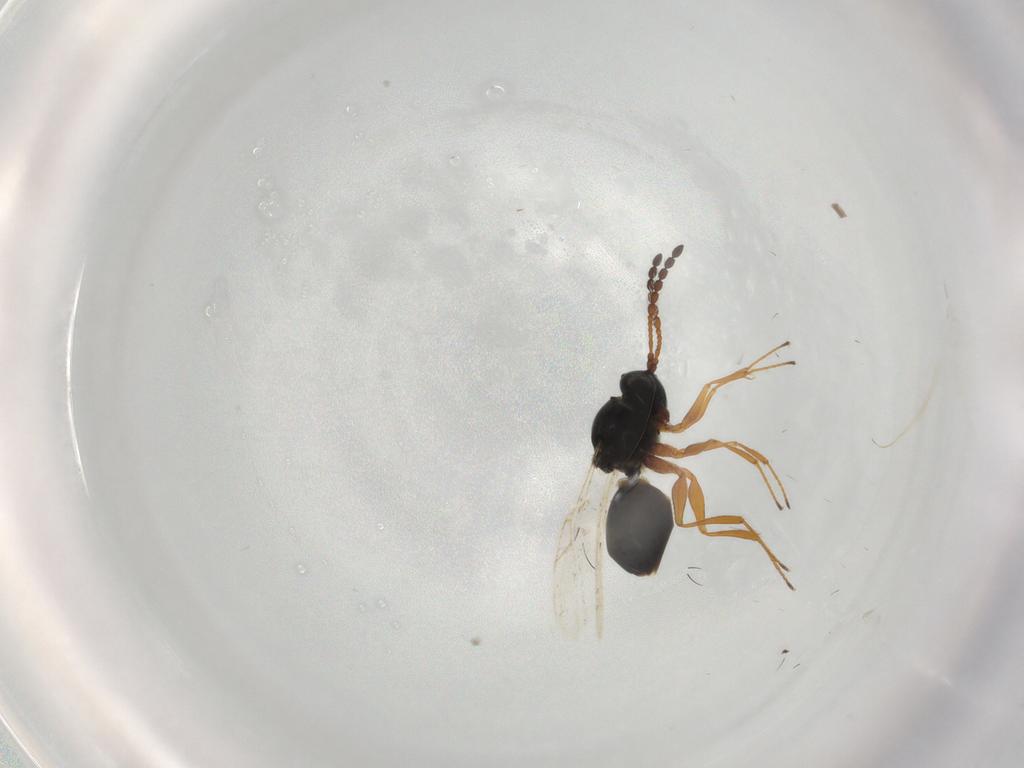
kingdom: Animalia
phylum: Arthropoda
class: Insecta
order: Hymenoptera
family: Figitidae
